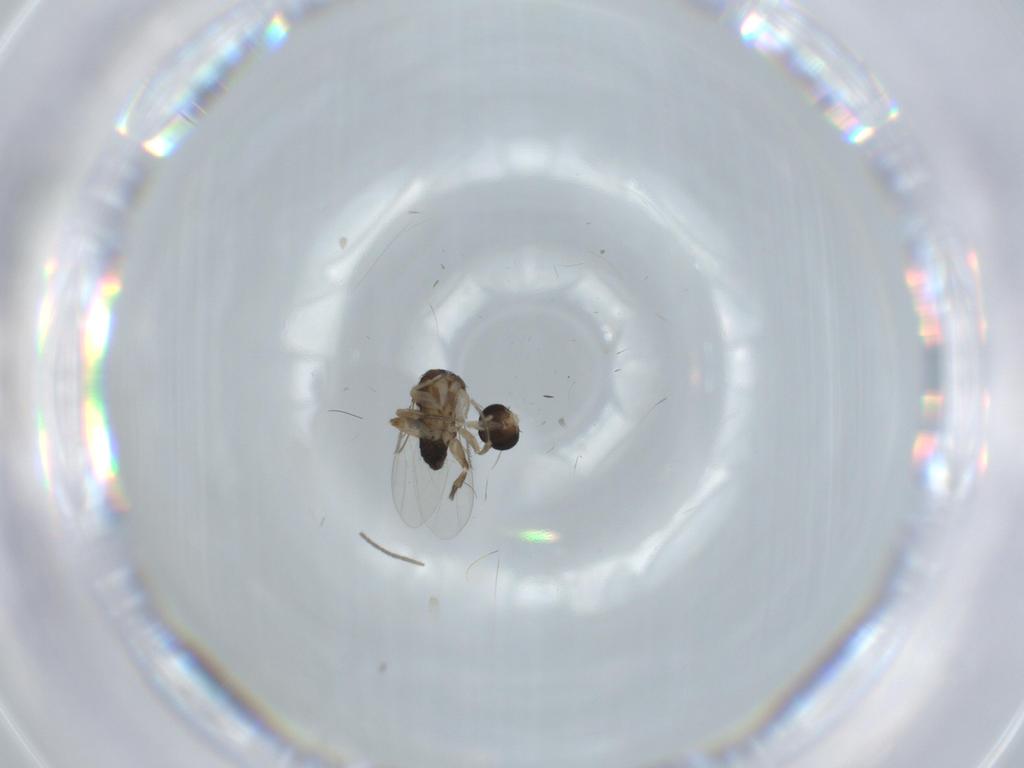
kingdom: Animalia
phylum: Arthropoda
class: Insecta
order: Diptera
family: Phoridae
